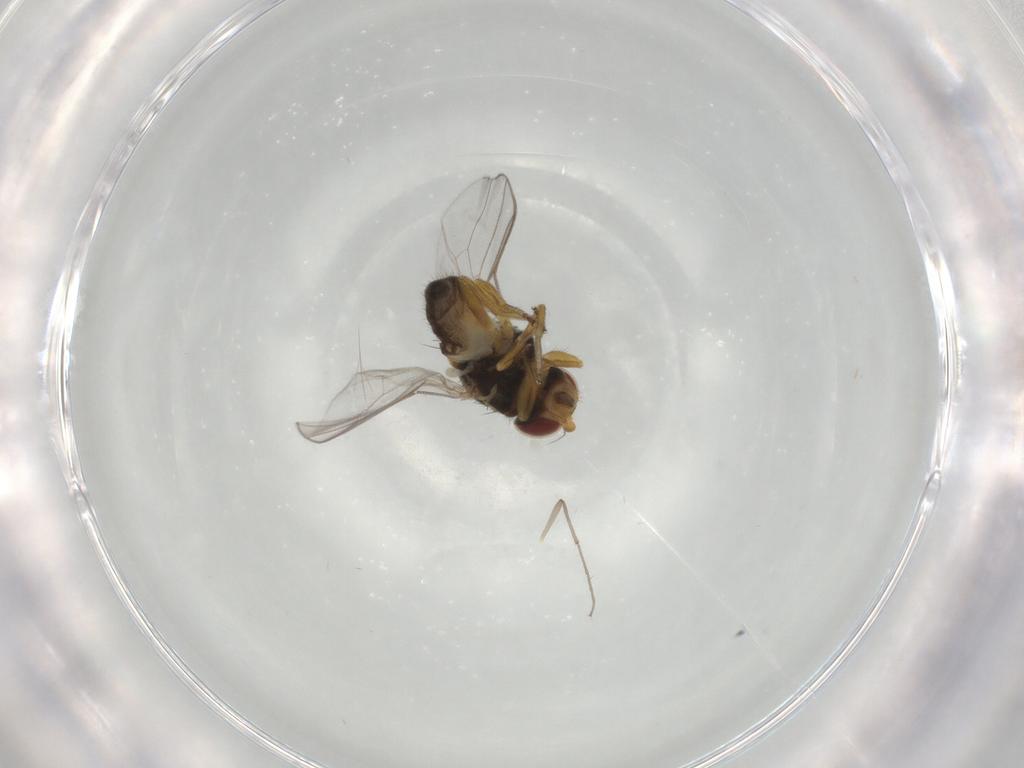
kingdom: Animalia
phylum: Arthropoda
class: Insecta
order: Diptera
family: Chloropidae
